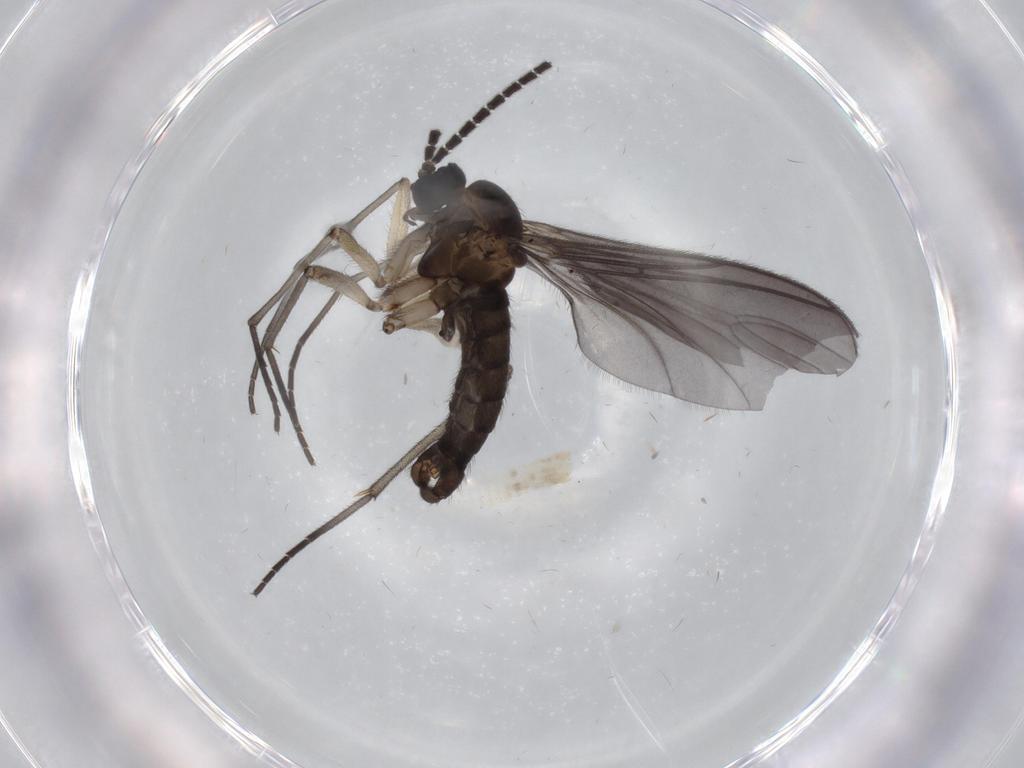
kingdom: Animalia
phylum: Arthropoda
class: Insecta
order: Diptera
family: Sciaridae
